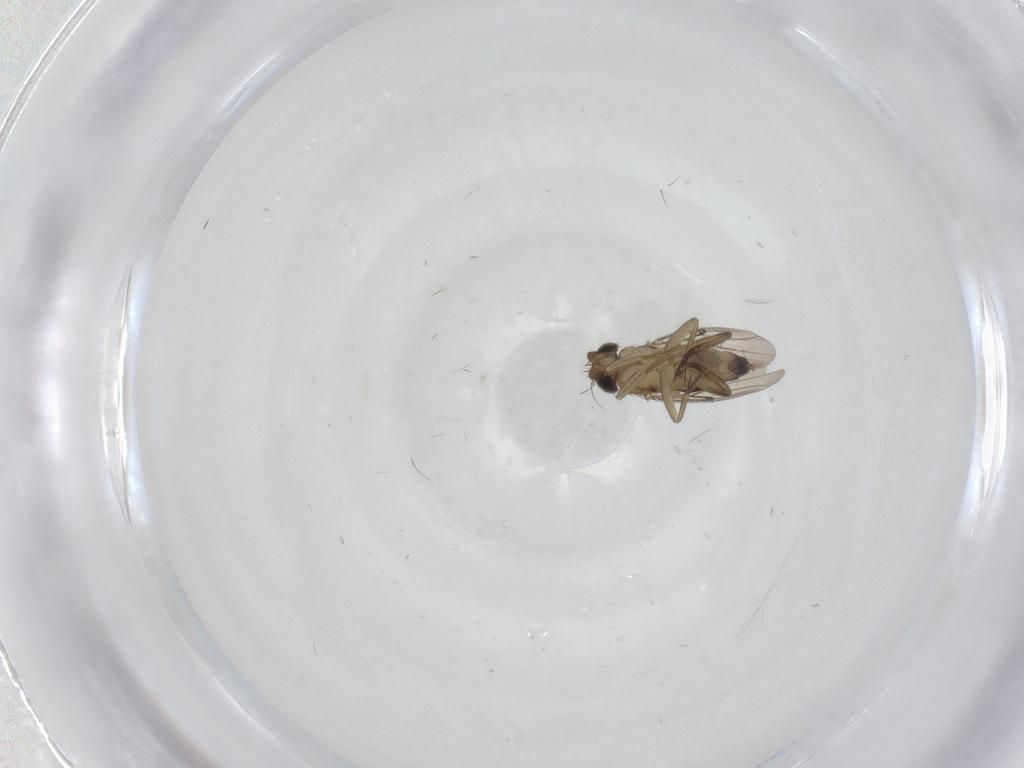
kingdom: Animalia
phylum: Arthropoda
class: Insecta
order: Diptera
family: Phoridae
